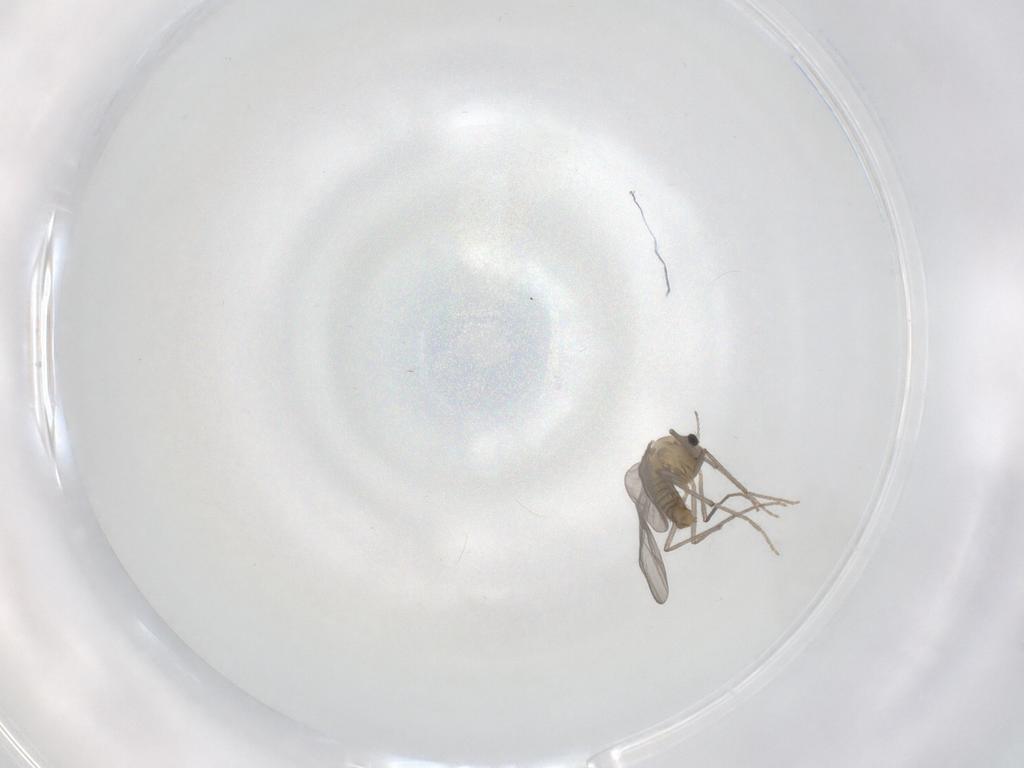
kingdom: Animalia
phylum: Arthropoda
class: Insecta
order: Diptera
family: Chironomidae
